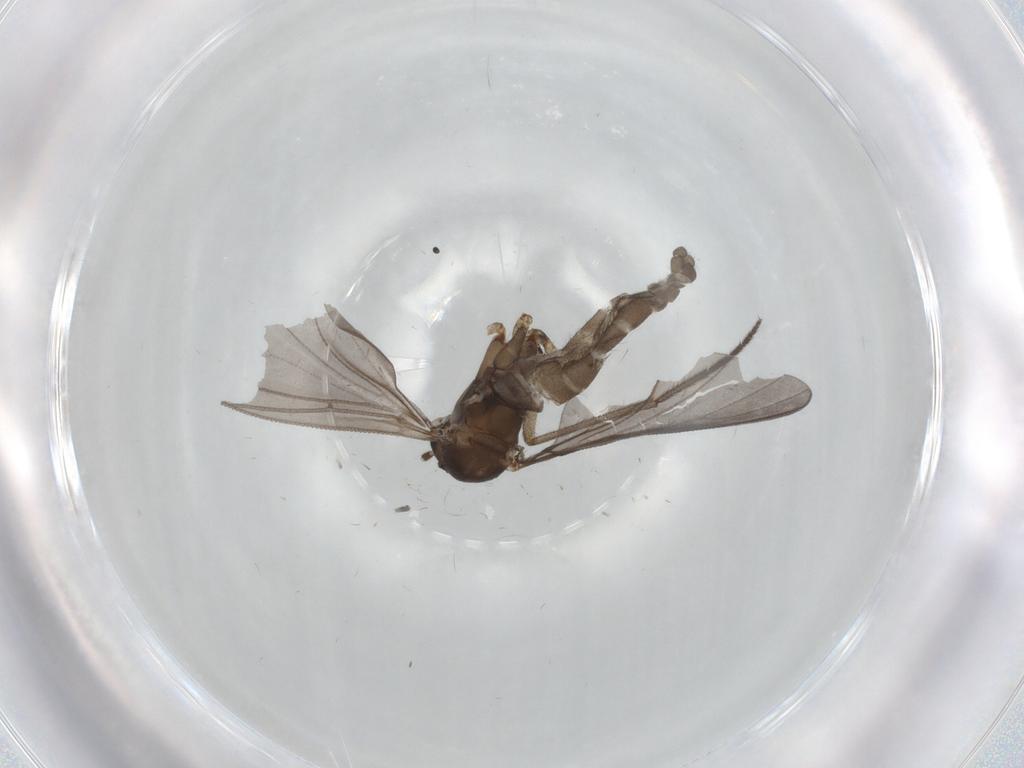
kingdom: Animalia
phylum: Arthropoda
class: Insecta
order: Diptera
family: Sciaridae
